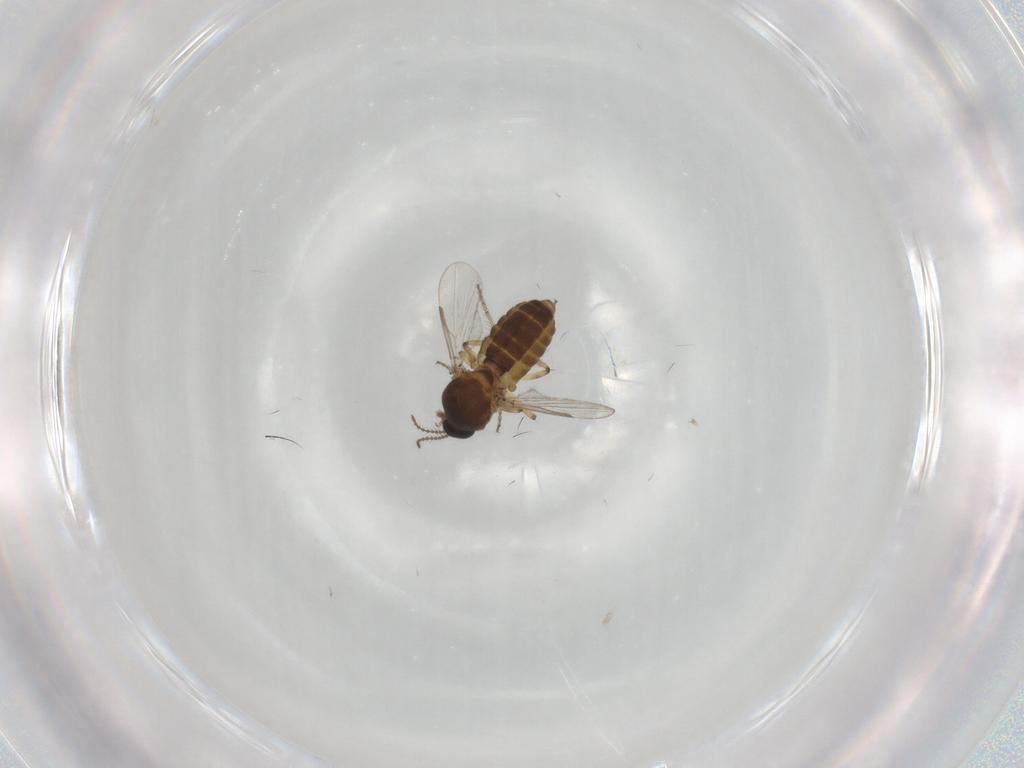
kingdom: Animalia
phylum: Arthropoda
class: Insecta
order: Diptera
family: Ceratopogonidae
